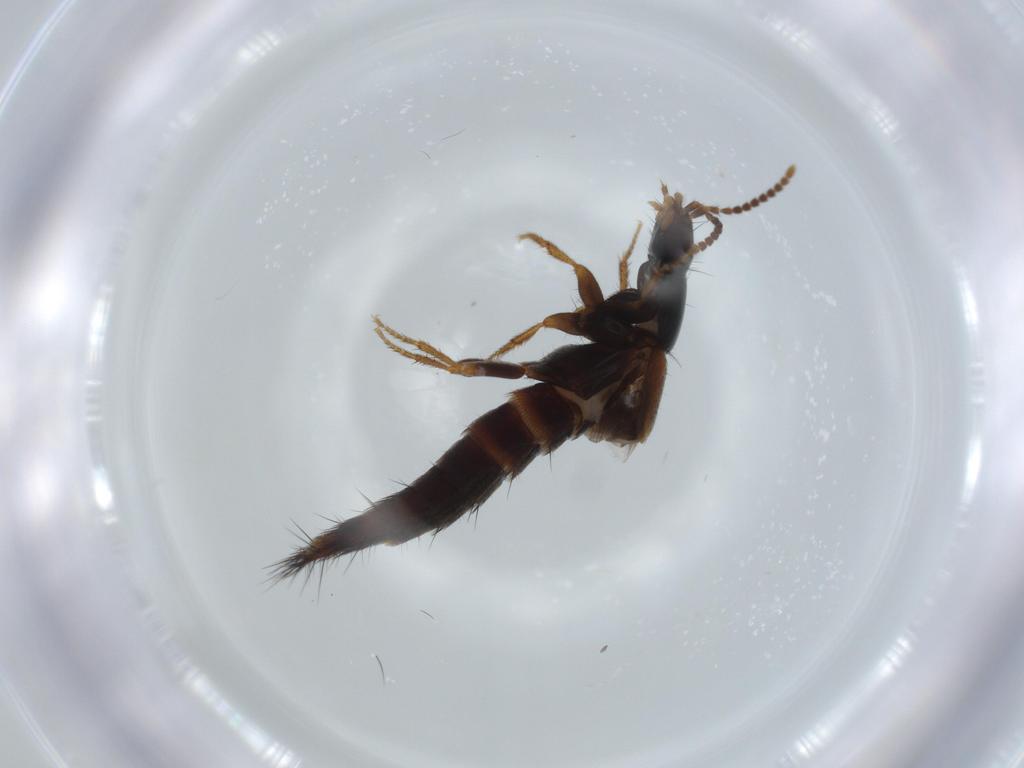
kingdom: Animalia
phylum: Arthropoda
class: Insecta
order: Coleoptera
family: Staphylinidae
